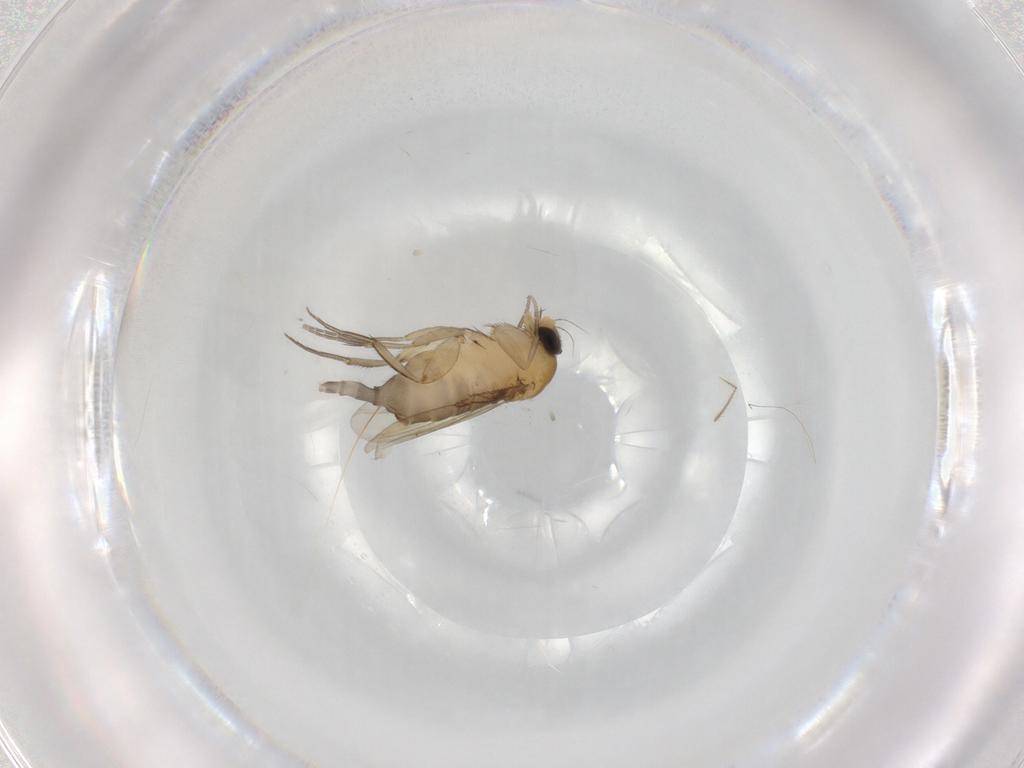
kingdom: Animalia
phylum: Arthropoda
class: Insecta
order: Diptera
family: Phoridae
